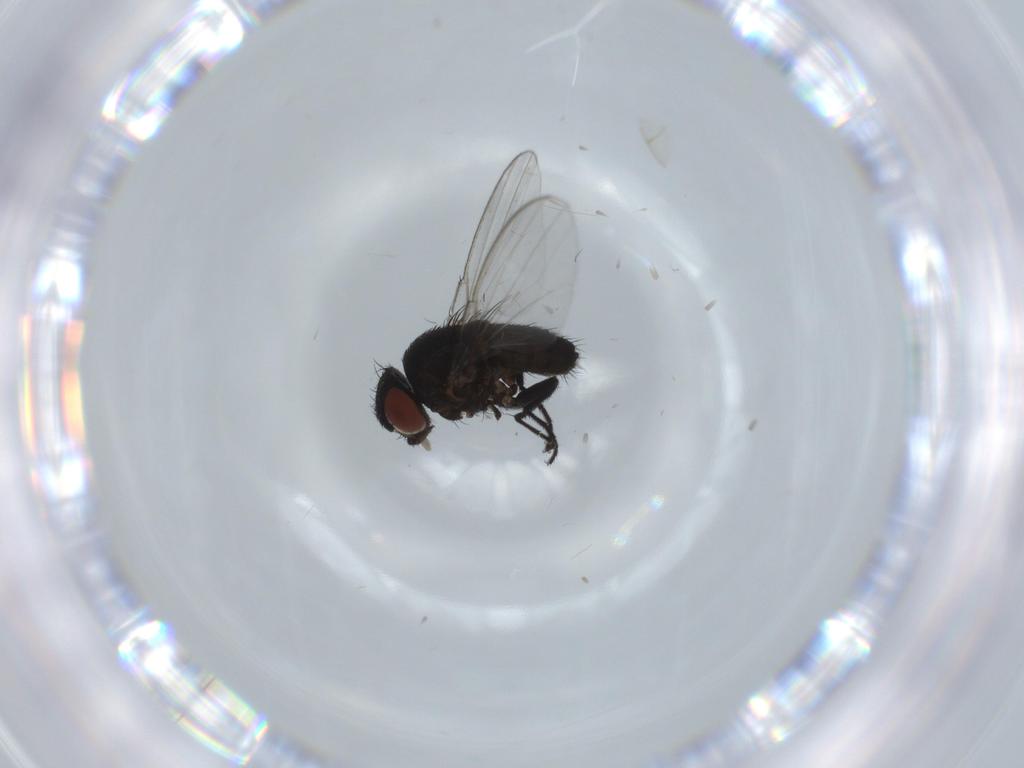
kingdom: Animalia
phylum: Arthropoda
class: Insecta
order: Diptera
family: Milichiidae
